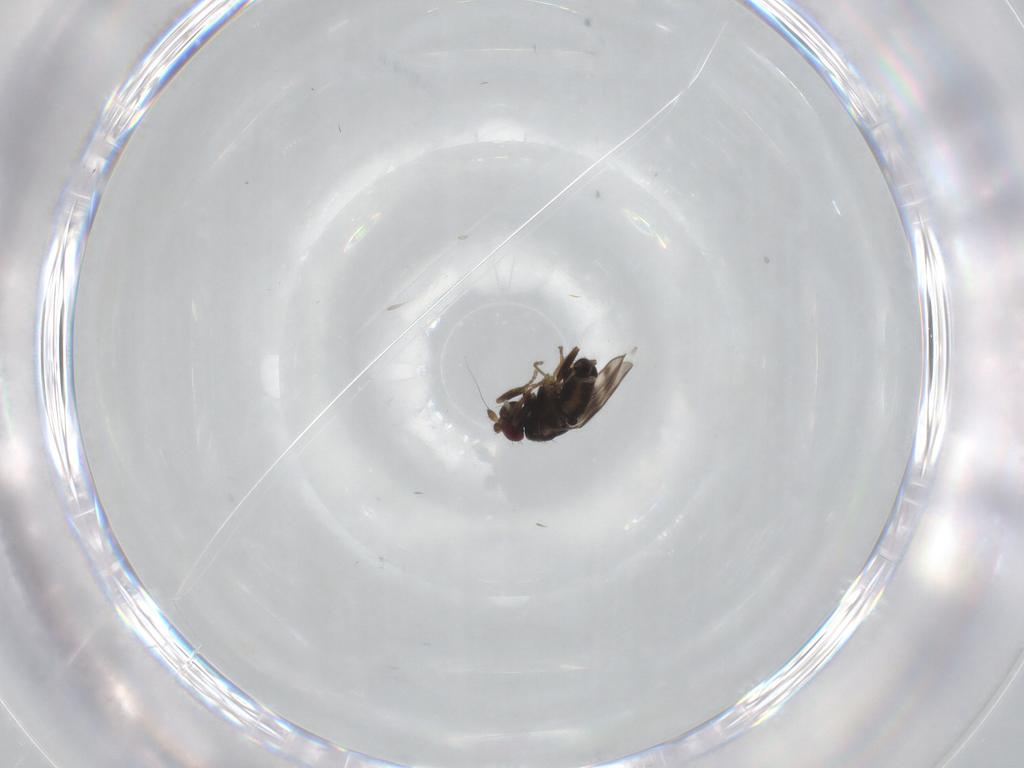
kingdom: Animalia
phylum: Arthropoda
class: Insecta
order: Diptera
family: Sphaeroceridae
